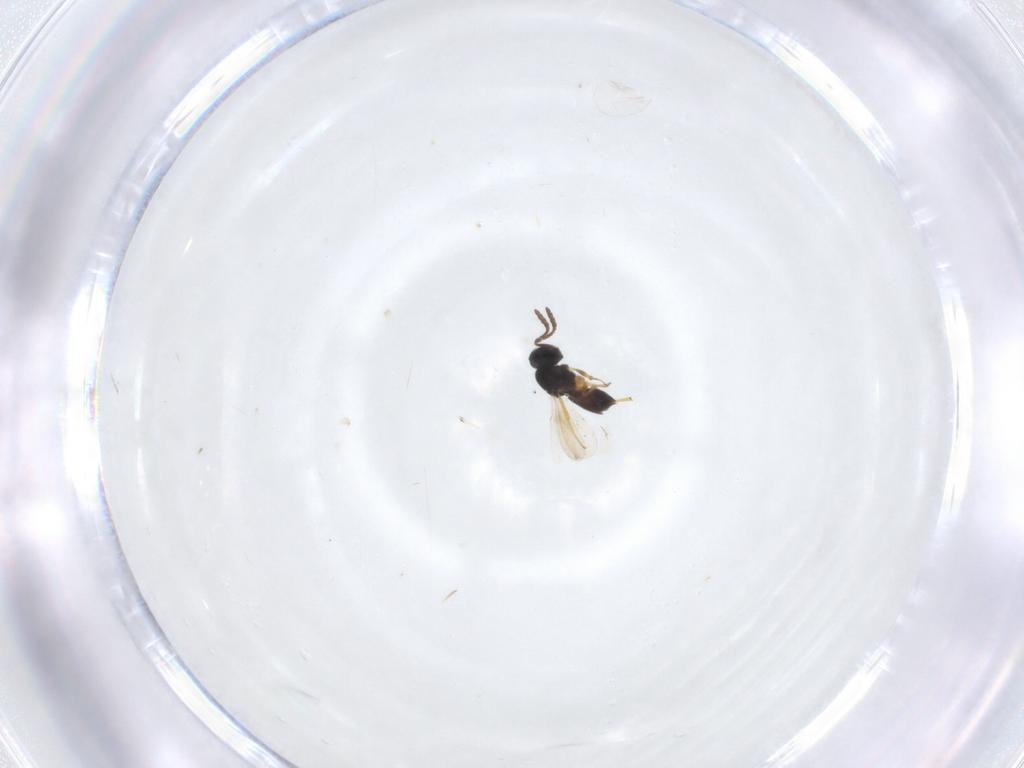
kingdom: Animalia
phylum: Arthropoda
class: Insecta
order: Hymenoptera
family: Scelionidae
